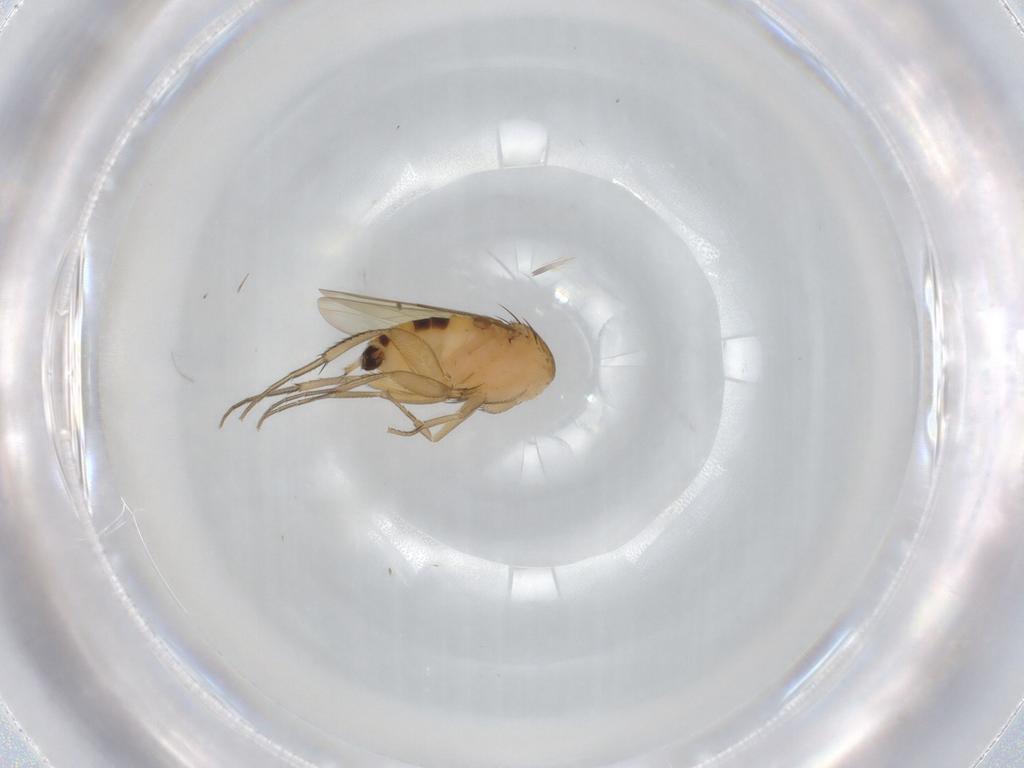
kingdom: Animalia
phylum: Arthropoda
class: Insecta
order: Diptera
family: Phoridae
